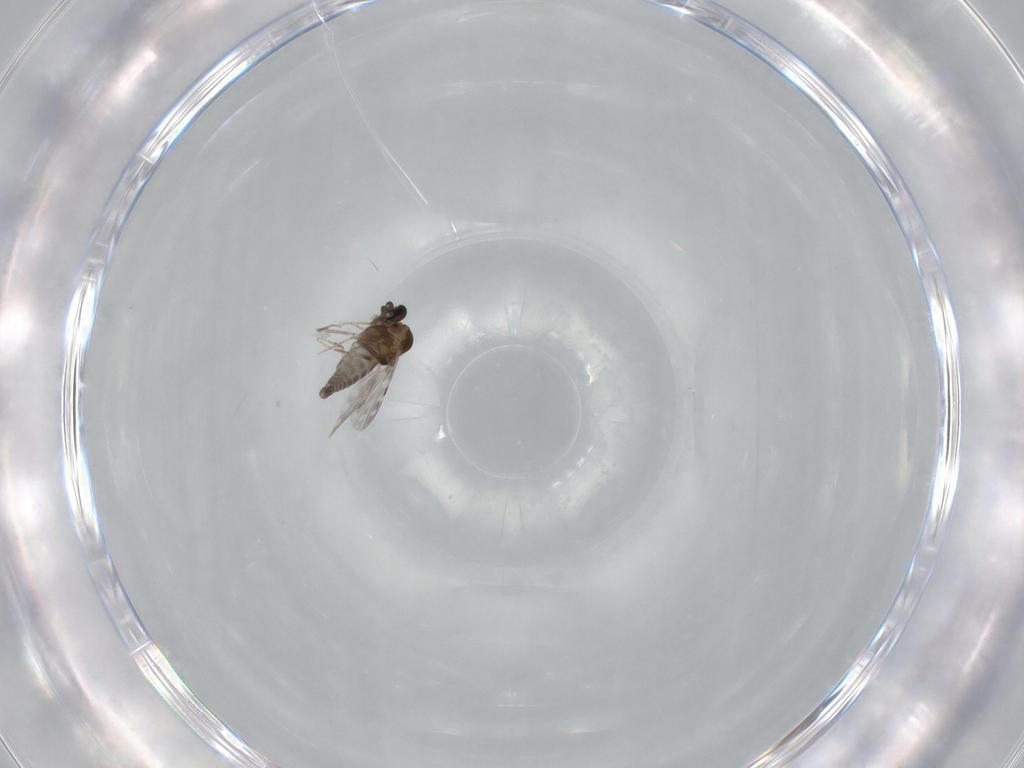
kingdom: Animalia
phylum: Arthropoda
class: Insecta
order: Diptera
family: Ceratopogonidae
